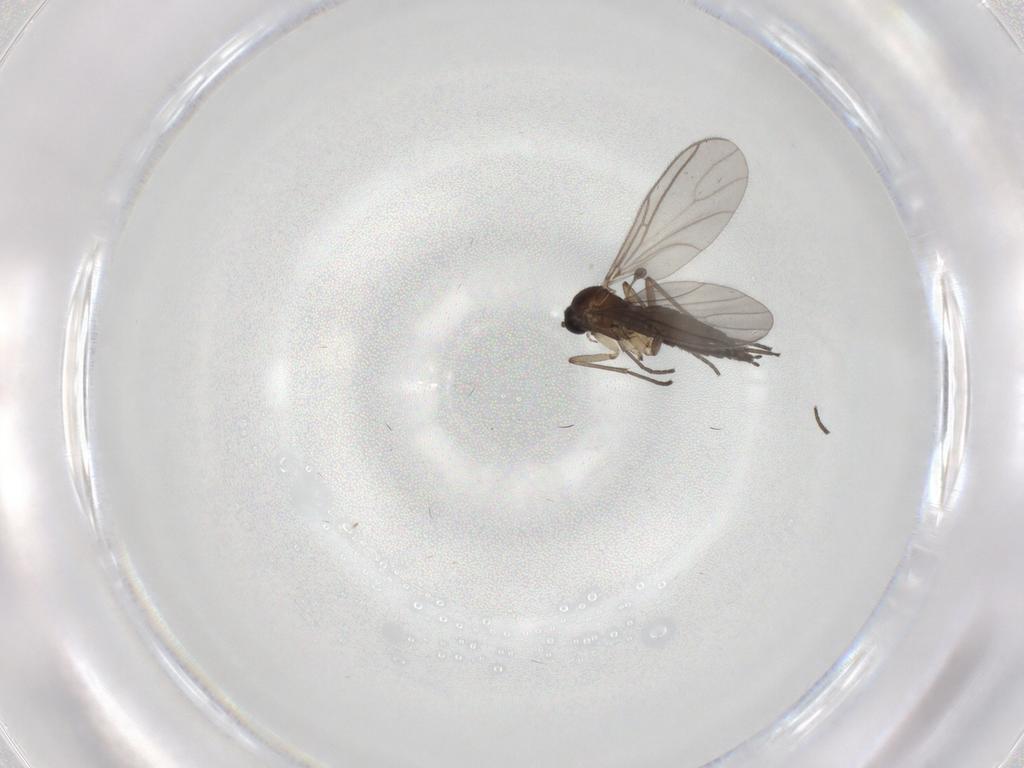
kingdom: Animalia
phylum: Arthropoda
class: Insecta
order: Diptera
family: Sciaridae
